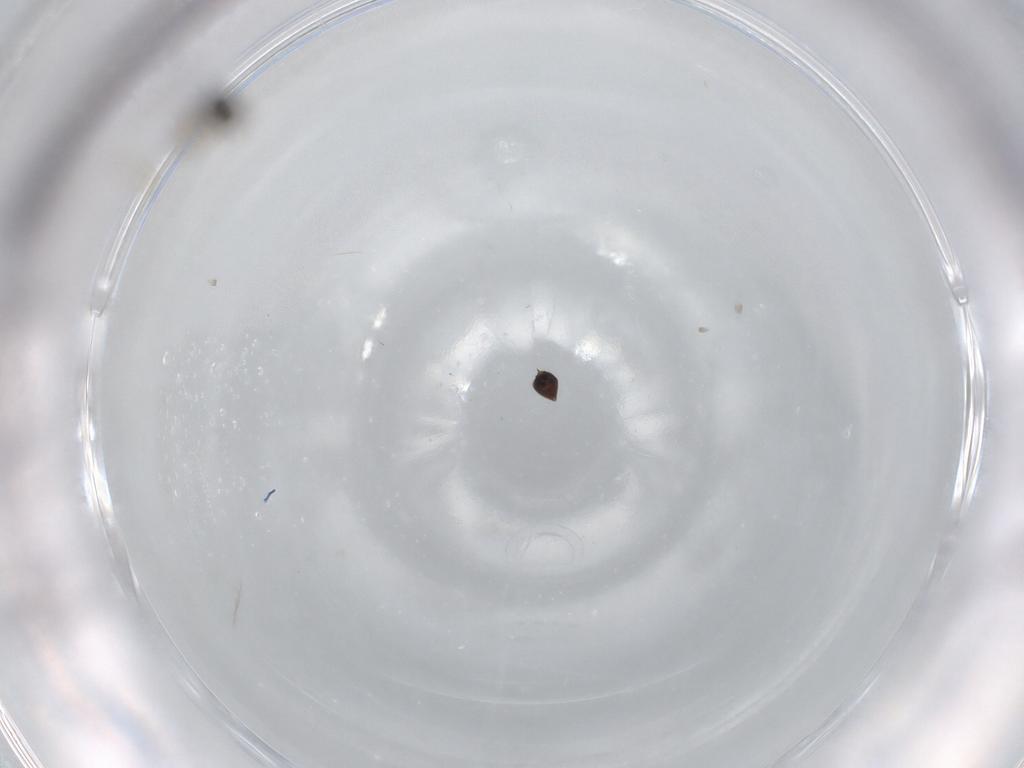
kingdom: Animalia
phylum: Arthropoda
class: Insecta
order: Hymenoptera
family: Mymaridae
